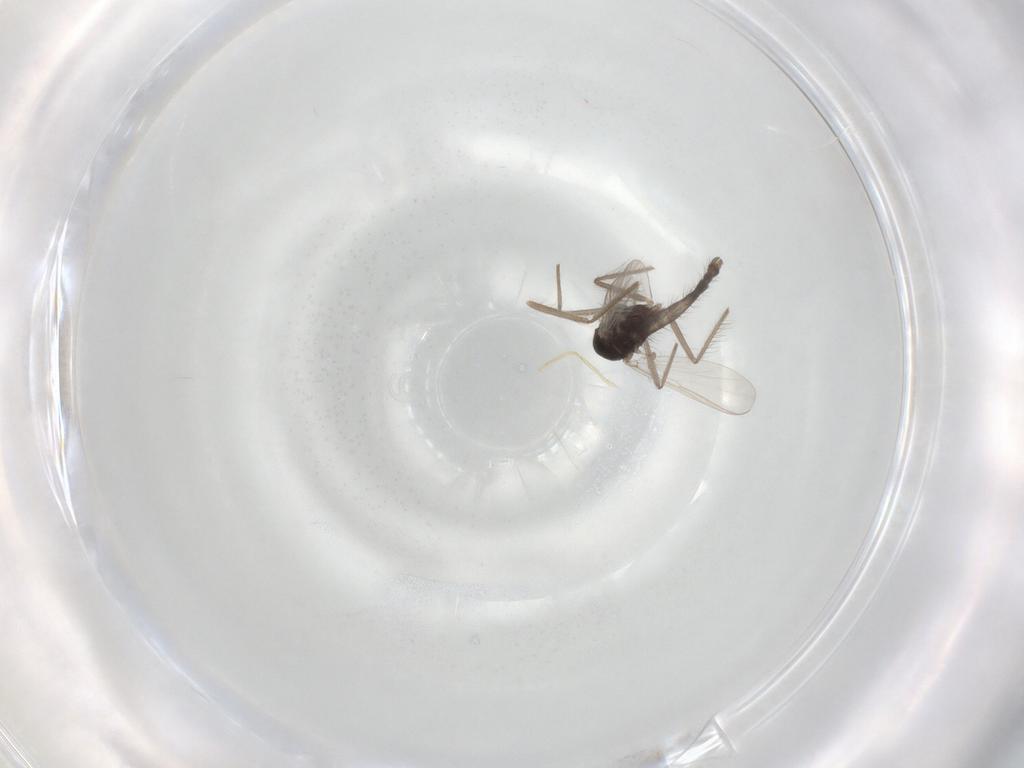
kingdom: Animalia
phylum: Arthropoda
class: Insecta
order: Diptera
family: Chironomidae
